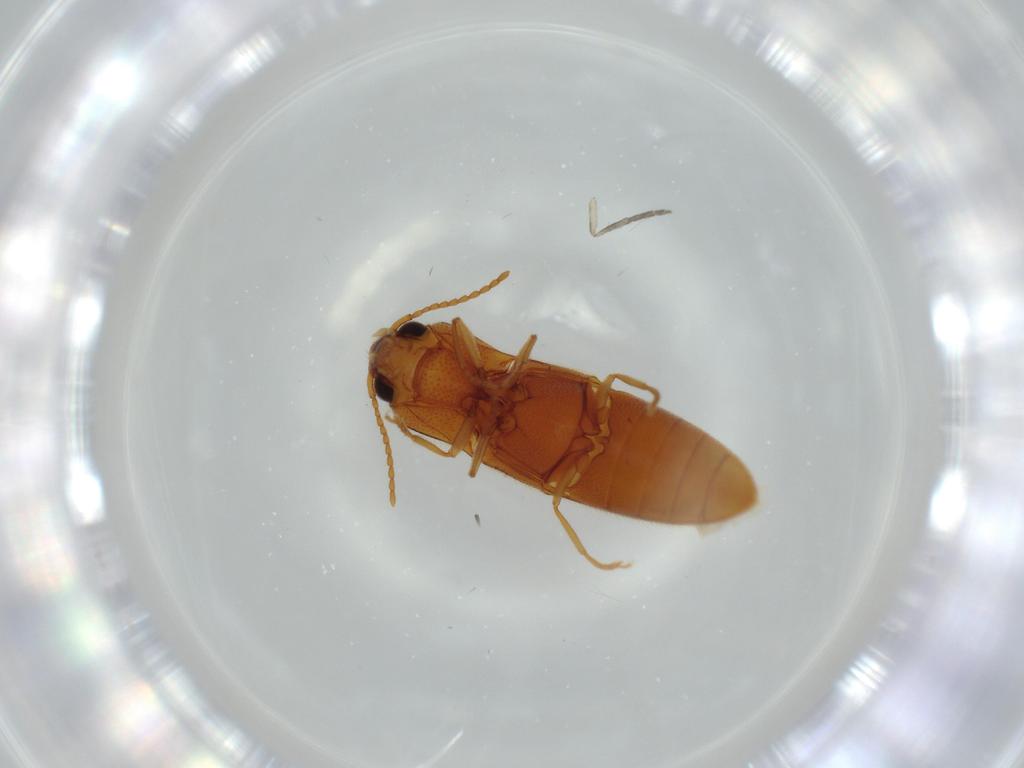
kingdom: Animalia
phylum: Arthropoda
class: Insecta
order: Coleoptera
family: Elateridae
